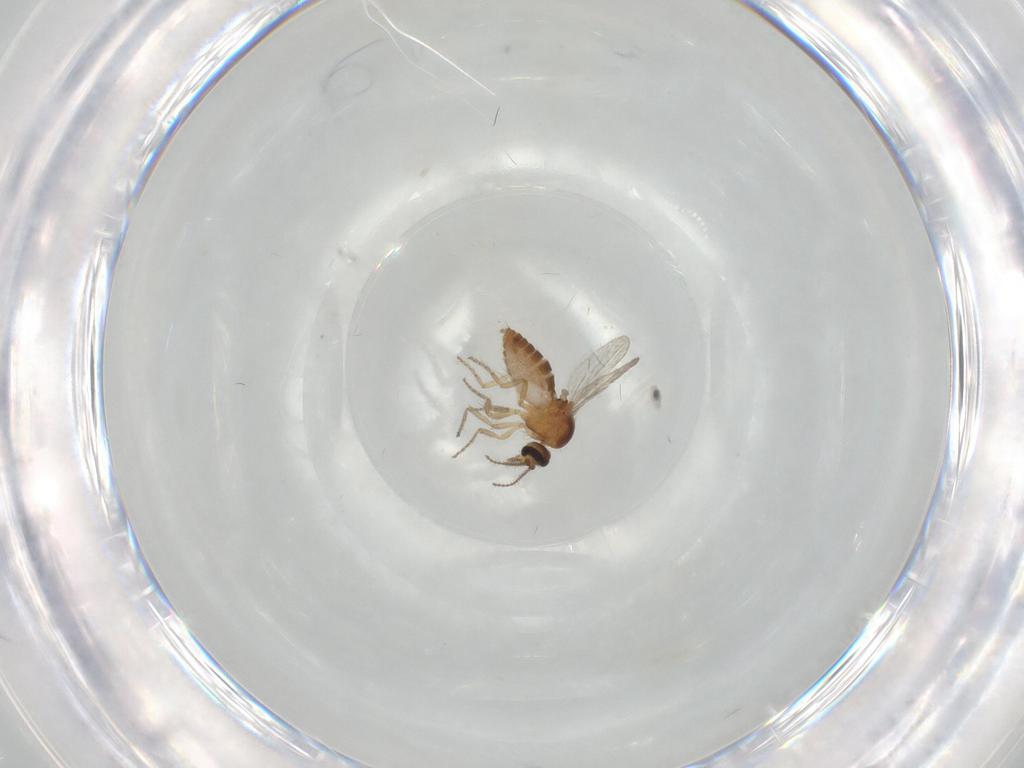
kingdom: Animalia
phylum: Arthropoda
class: Insecta
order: Diptera
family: Ceratopogonidae
